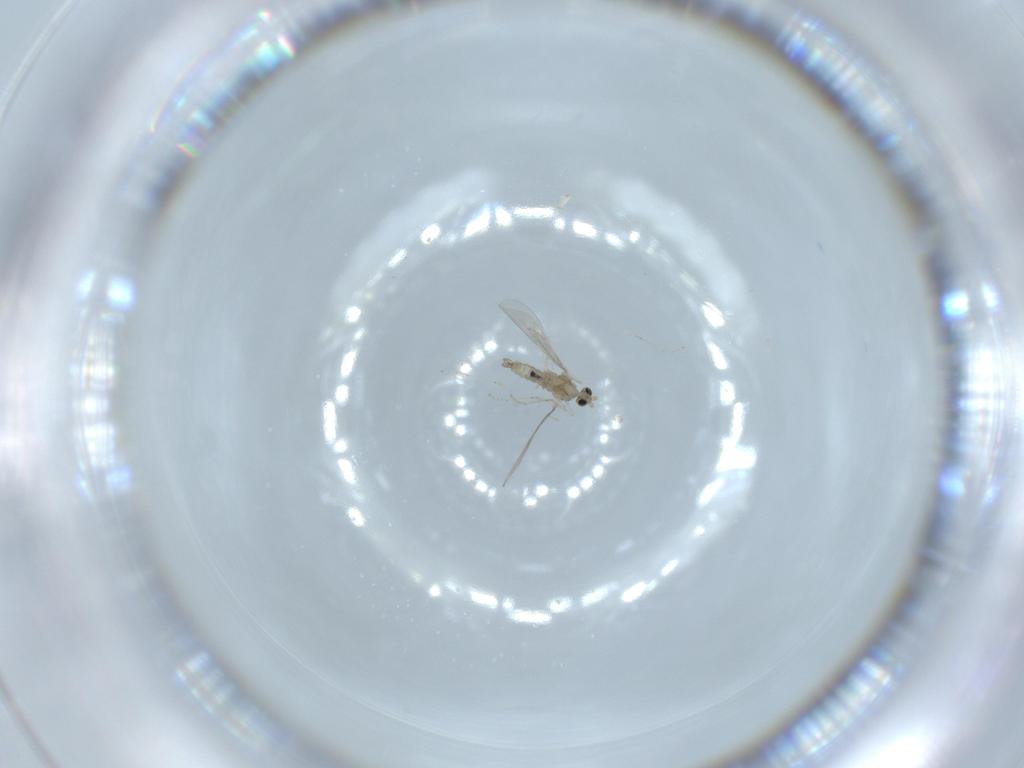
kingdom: Animalia
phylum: Arthropoda
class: Insecta
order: Diptera
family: Cecidomyiidae
